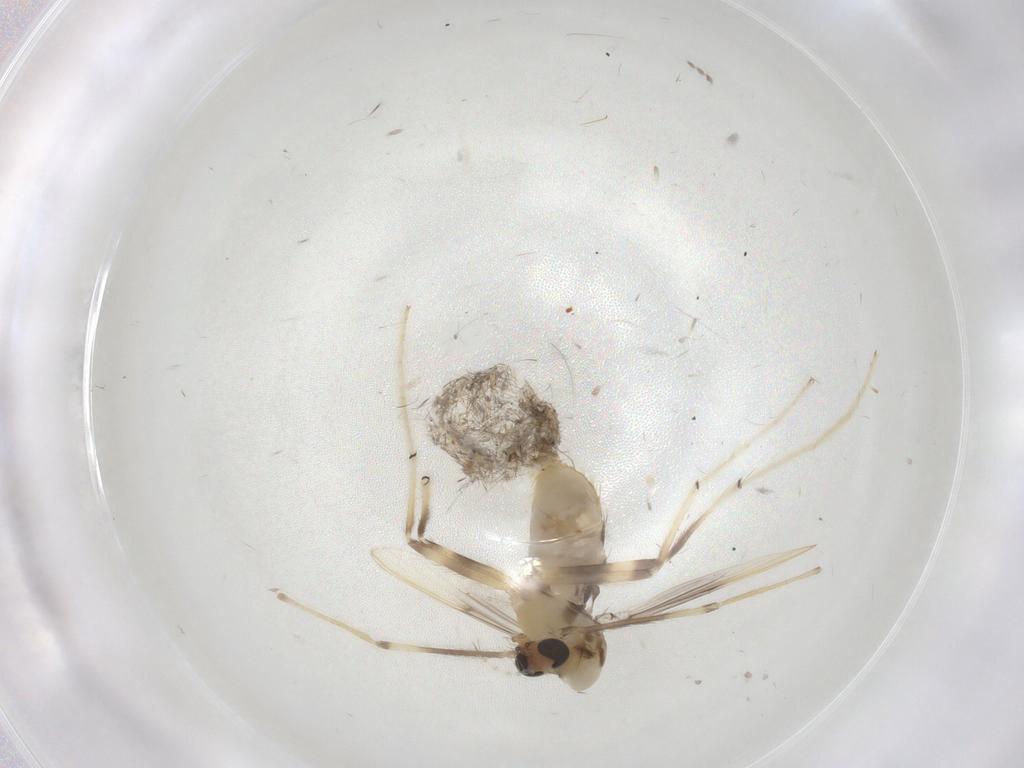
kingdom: Animalia
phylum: Arthropoda
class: Insecta
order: Diptera
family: Chironomidae
